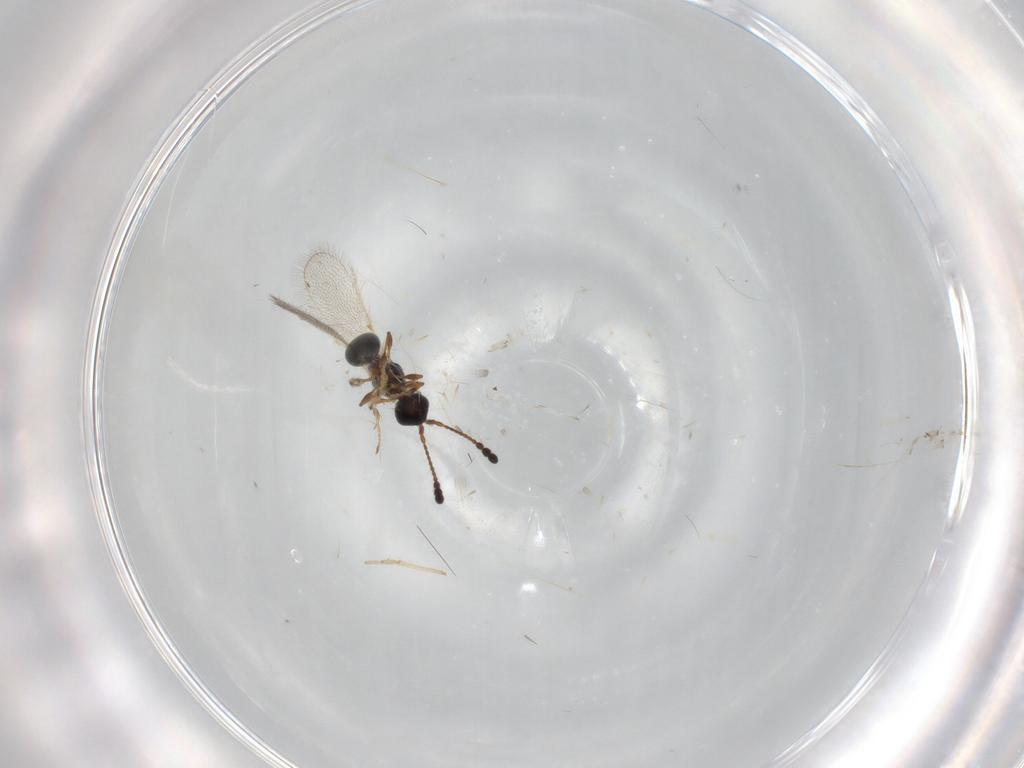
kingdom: Animalia
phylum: Arthropoda
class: Insecta
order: Hymenoptera
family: Diapriidae
